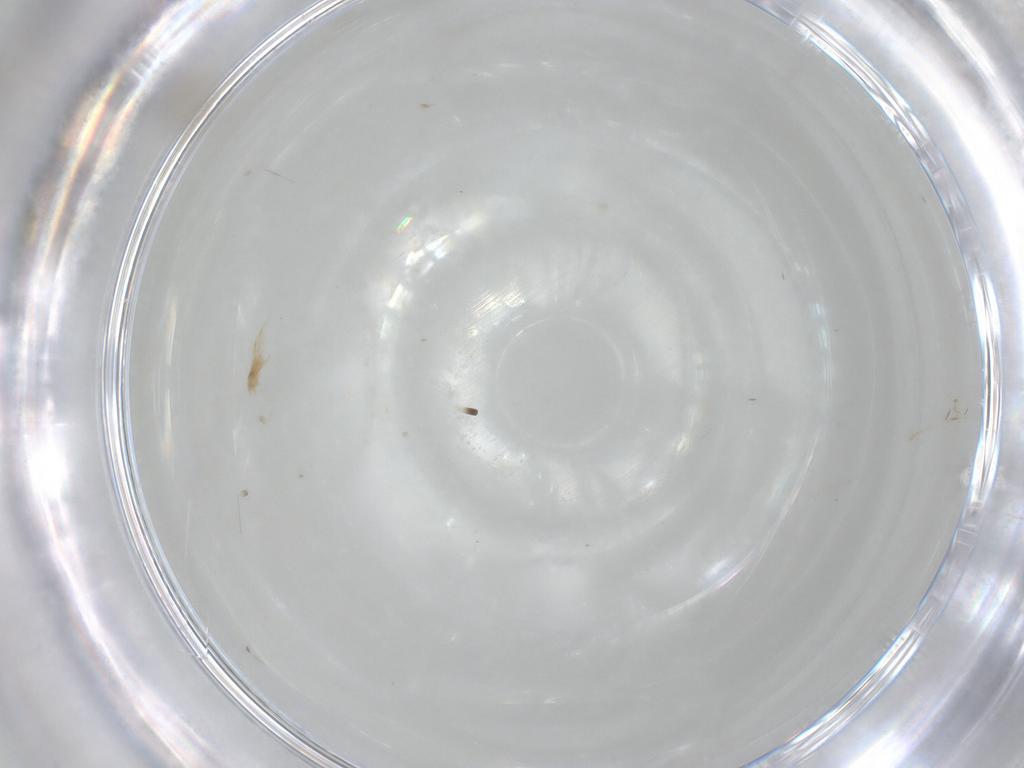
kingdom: Animalia
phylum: Arthropoda
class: Insecta
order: Hemiptera
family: Aleyrodidae
